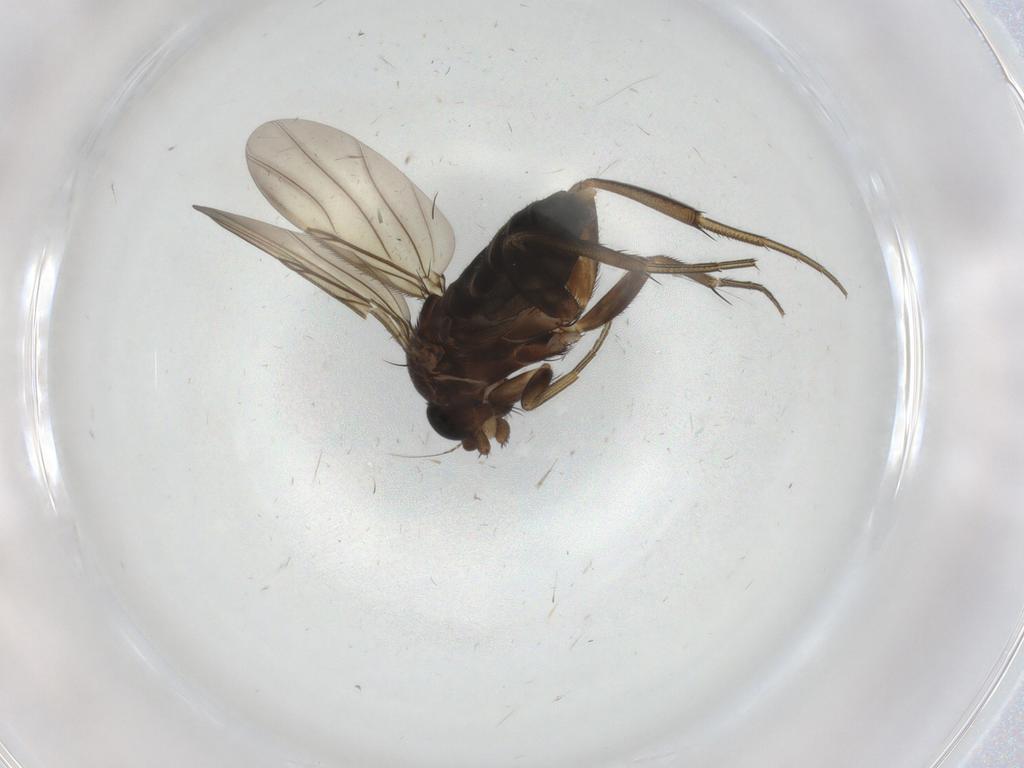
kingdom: Animalia
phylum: Arthropoda
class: Insecta
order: Diptera
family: Phoridae
